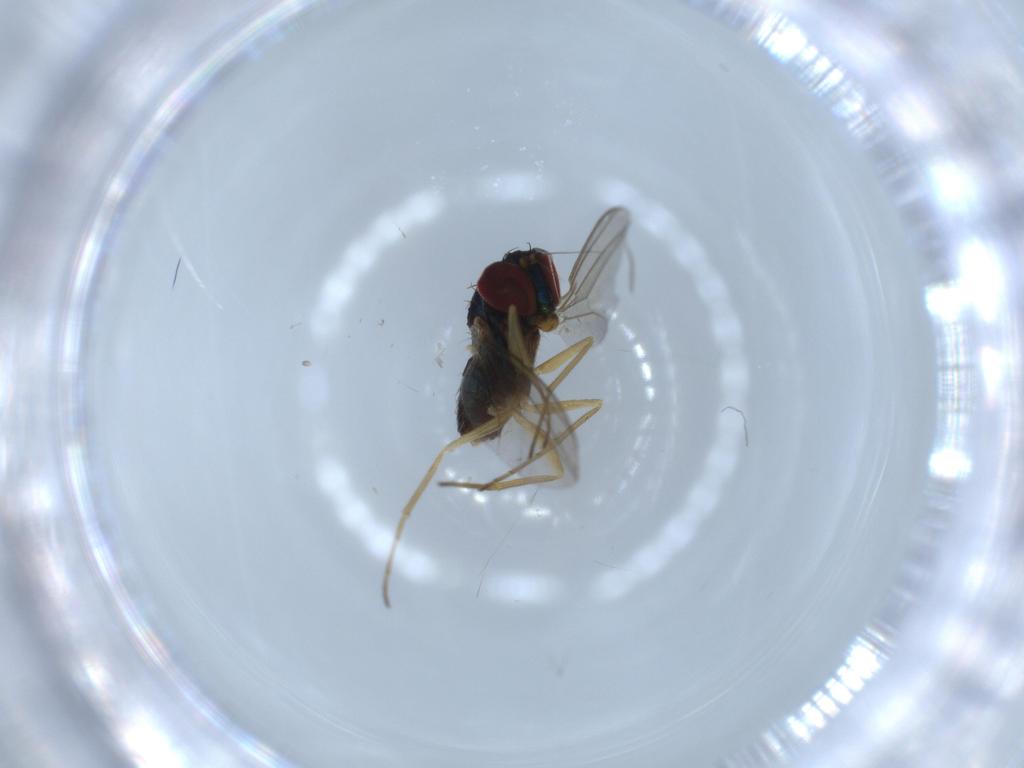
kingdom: Animalia
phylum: Arthropoda
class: Insecta
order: Diptera
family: Dolichopodidae
